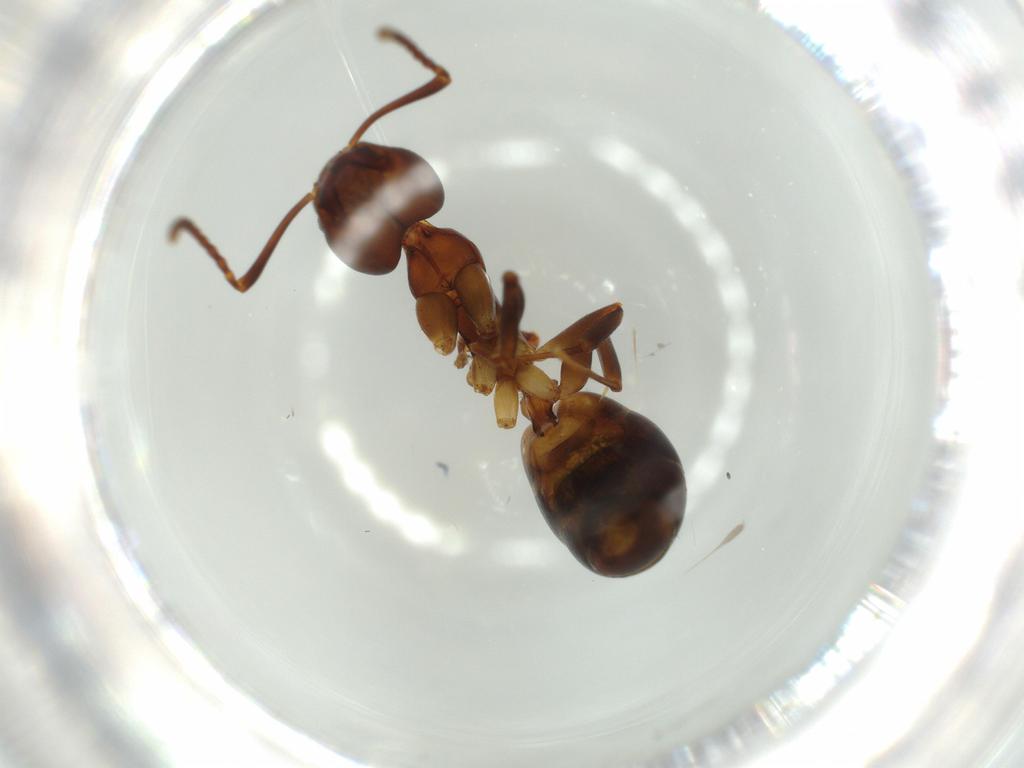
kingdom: Animalia
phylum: Arthropoda
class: Insecta
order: Hymenoptera
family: Formicidae
